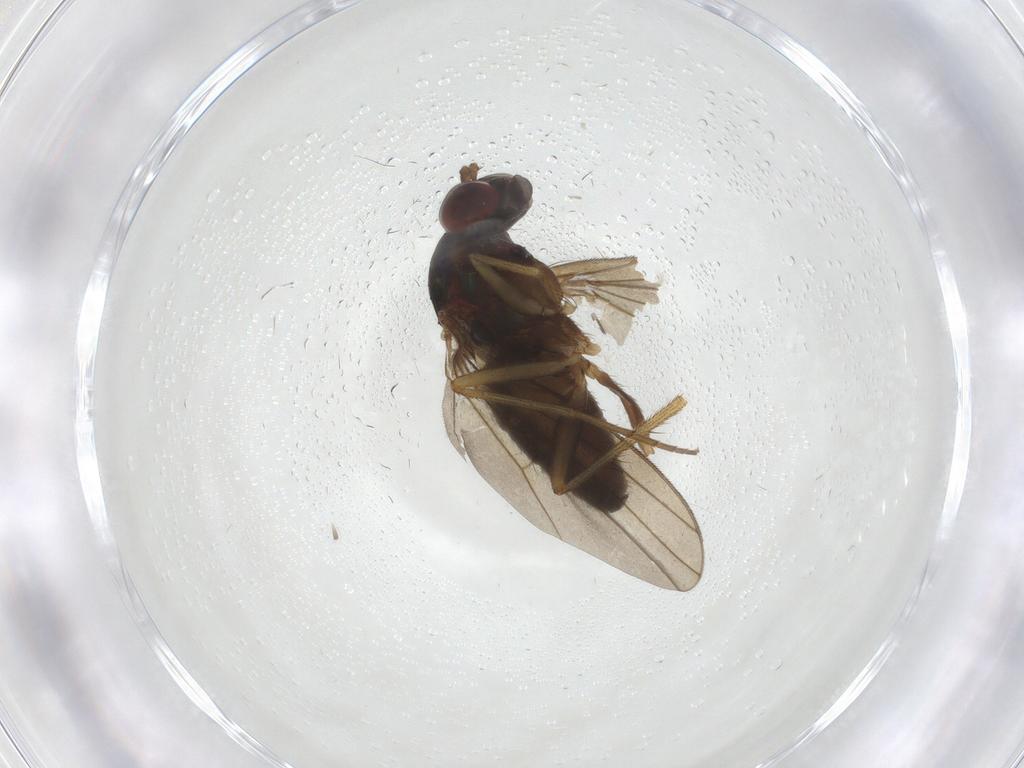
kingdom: Animalia
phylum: Arthropoda
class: Insecta
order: Diptera
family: Dolichopodidae
